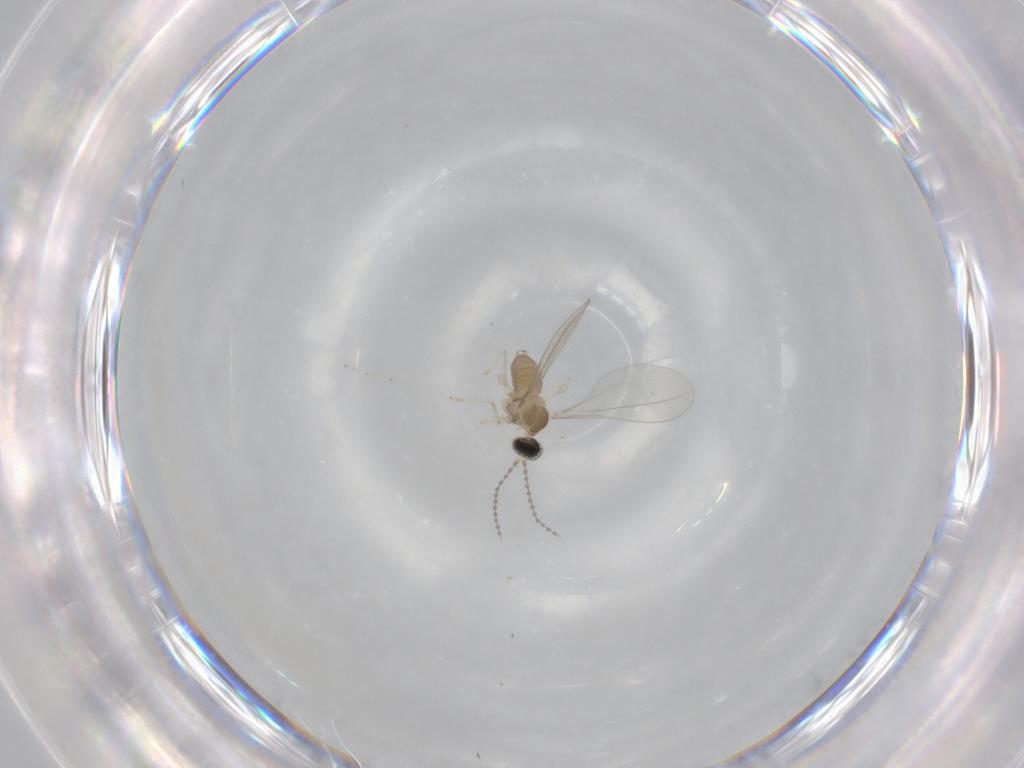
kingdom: Animalia
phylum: Arthropoda
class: Insecta
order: Diptera
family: Cecidomyiidae
